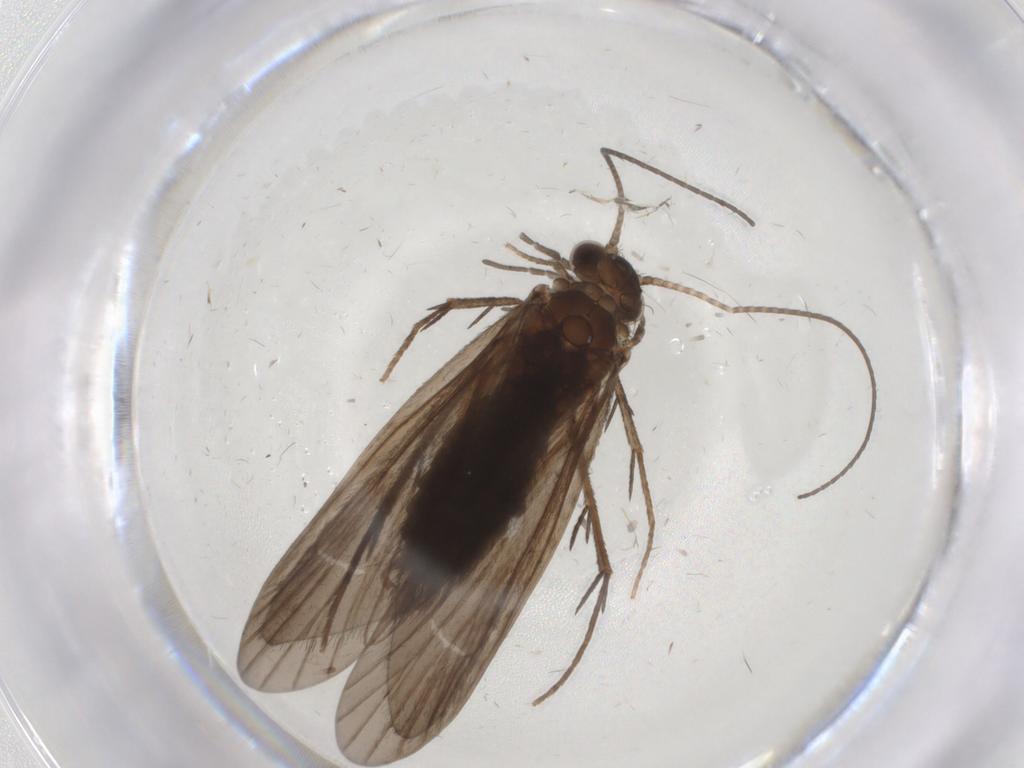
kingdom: Animalia
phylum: Arthropoda
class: Insecta
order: Trichoptera
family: Philopotamidae
